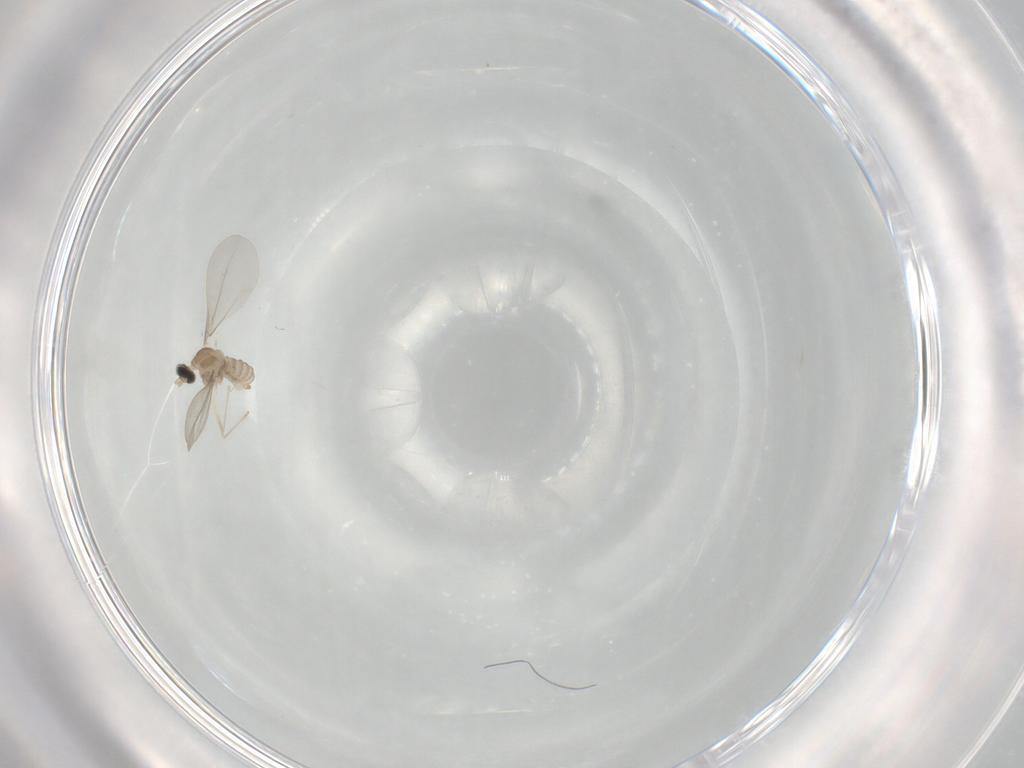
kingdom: Animalia
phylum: Arthropoda
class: Insecta
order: Diptera
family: Cecidomyiidae
